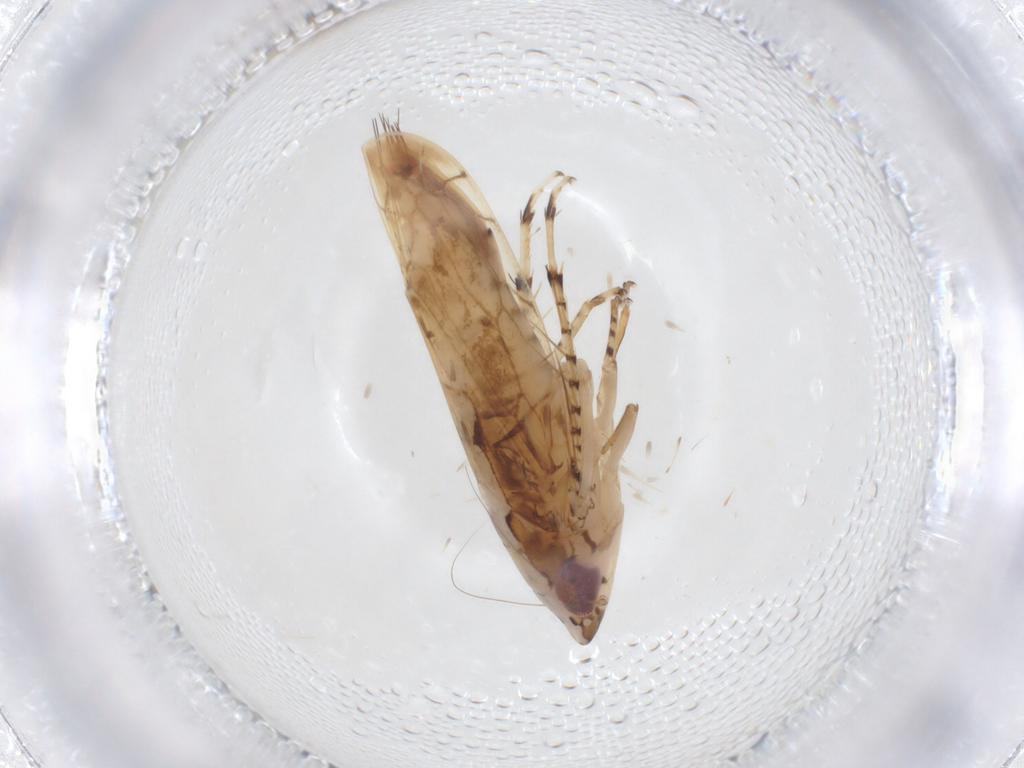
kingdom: Animalia
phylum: Arthropoda
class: Insecta
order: Hemiptera
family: Cicadellidae
